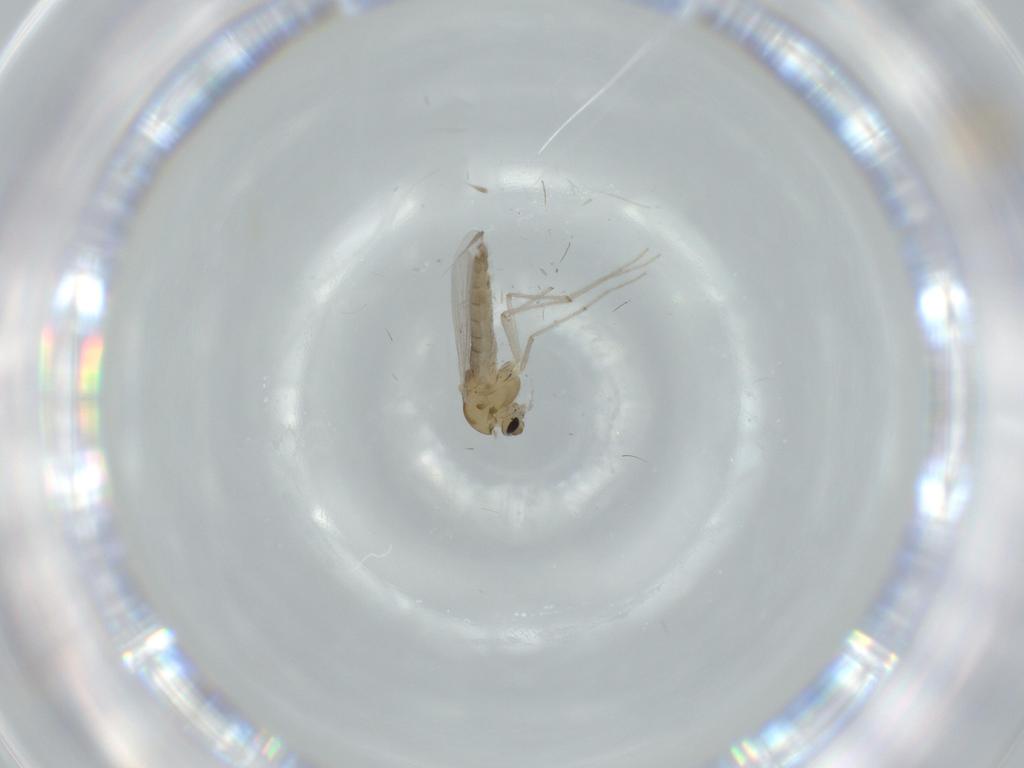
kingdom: Animalia
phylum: Arthropoda
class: Insecta
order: Diptera
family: Chironomidae
